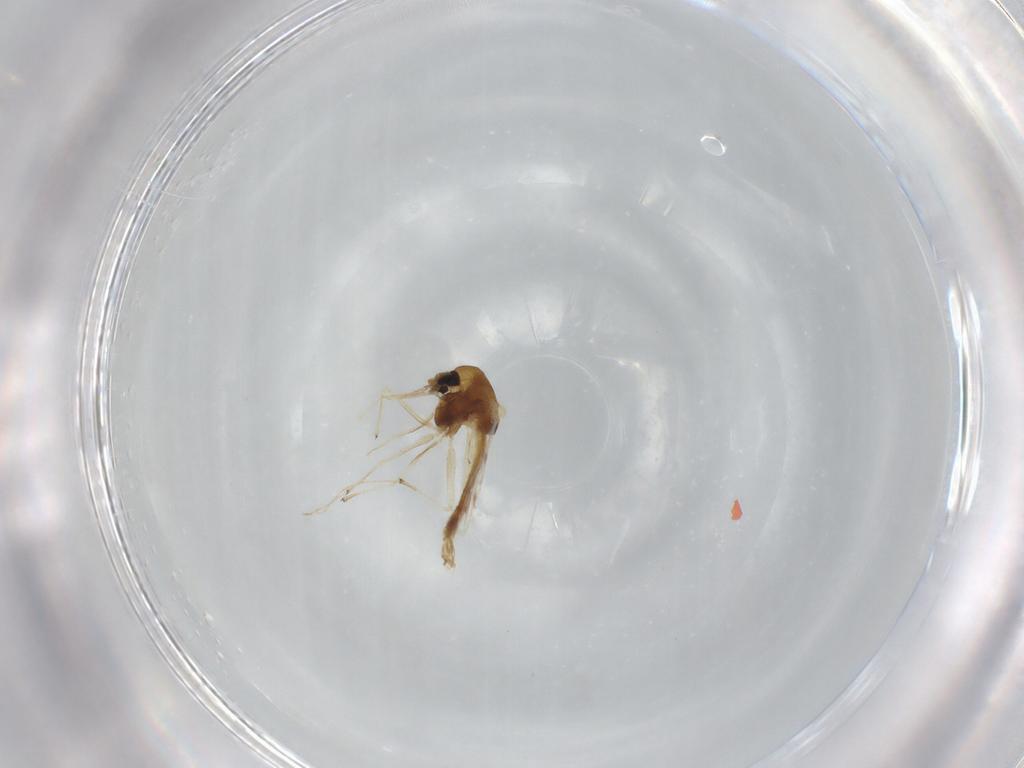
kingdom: Animalia
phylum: Arthropoda
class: Insecta
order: Diptera
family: Chironomidae
